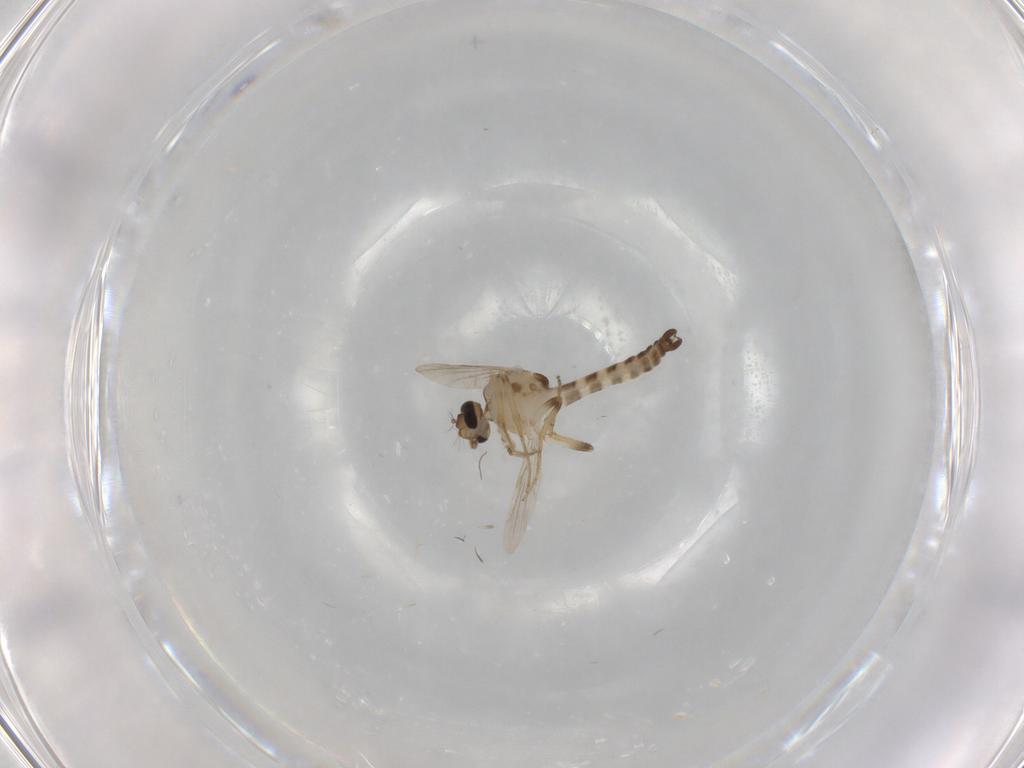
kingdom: Animalia
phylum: Arthropoda
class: Insecta
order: Diptera
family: Ceratopogonidae
